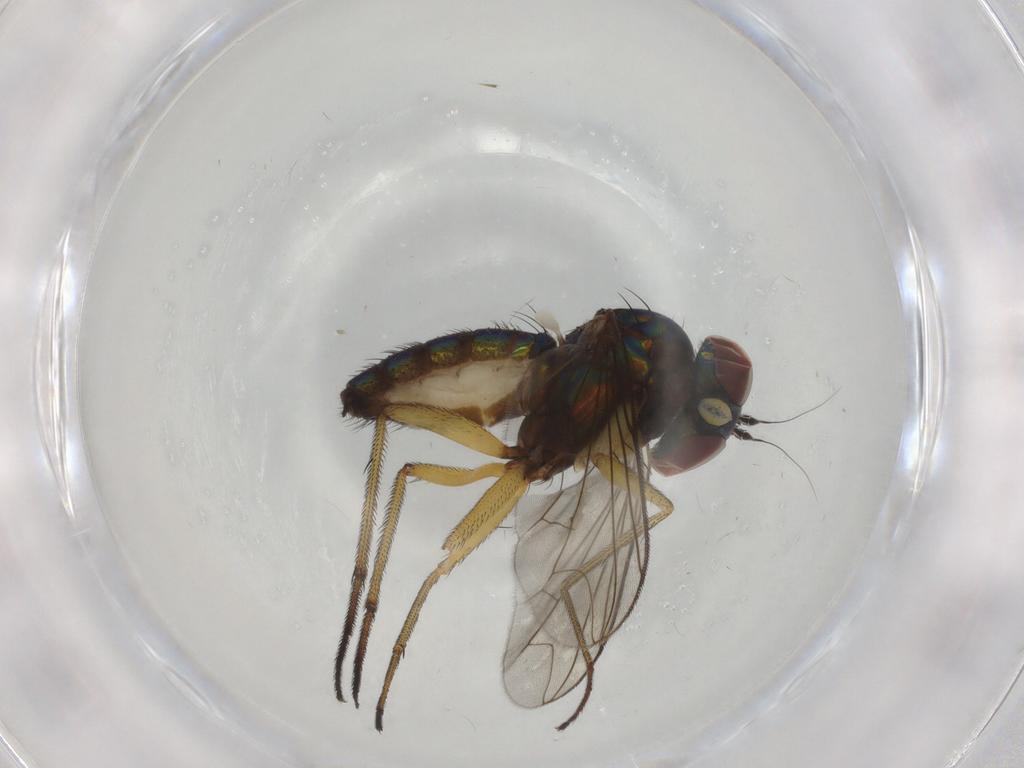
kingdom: Animalia
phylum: Arthropoda
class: Insecta
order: Diptera
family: Dolichopodidae
